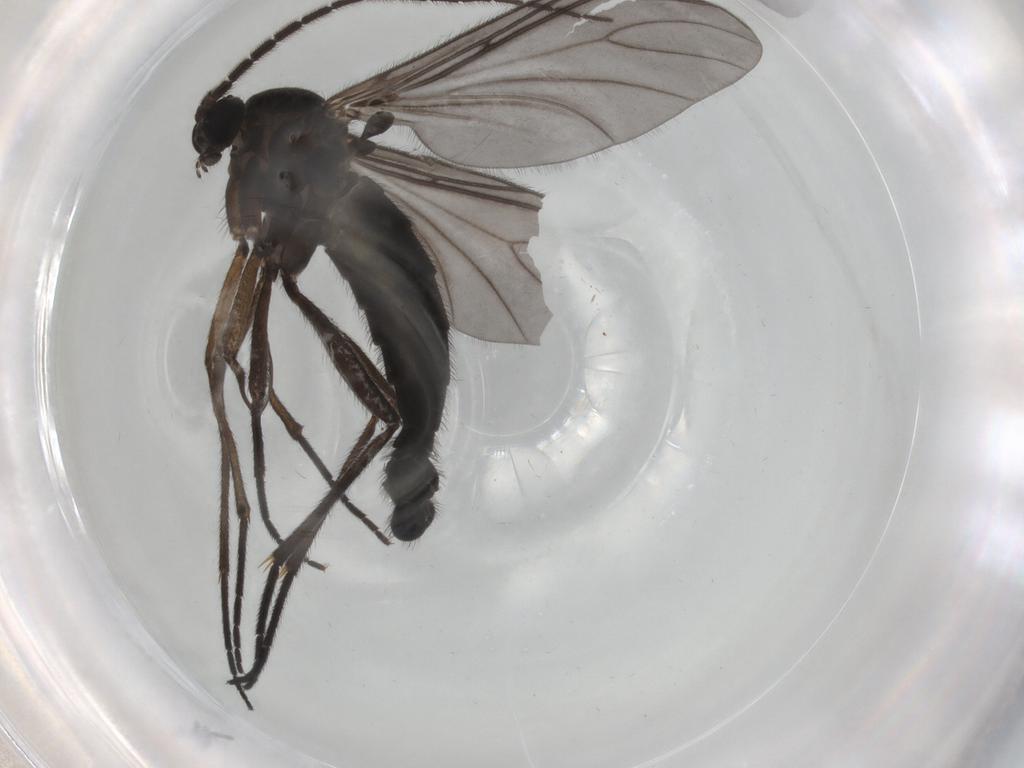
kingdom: Animalia
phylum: Arthropoda
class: Insecta
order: Diptera
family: Sciaridae
